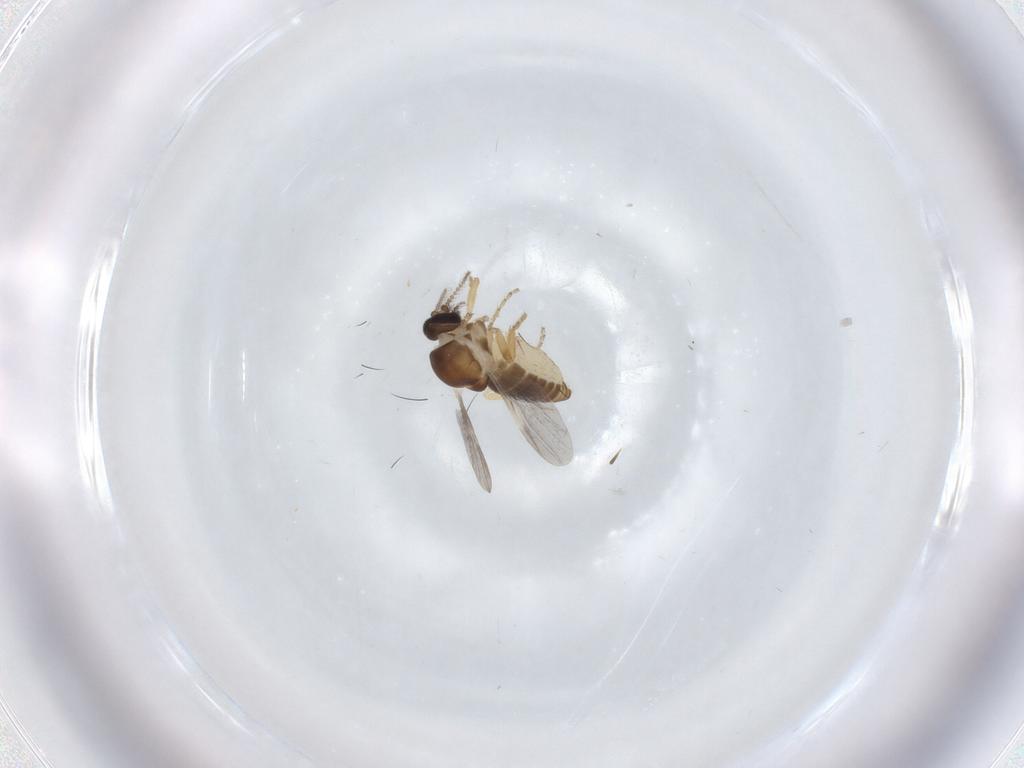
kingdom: Animalia
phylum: Arthropoda
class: Insecta
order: Diptera
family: Ceratopogonidae
